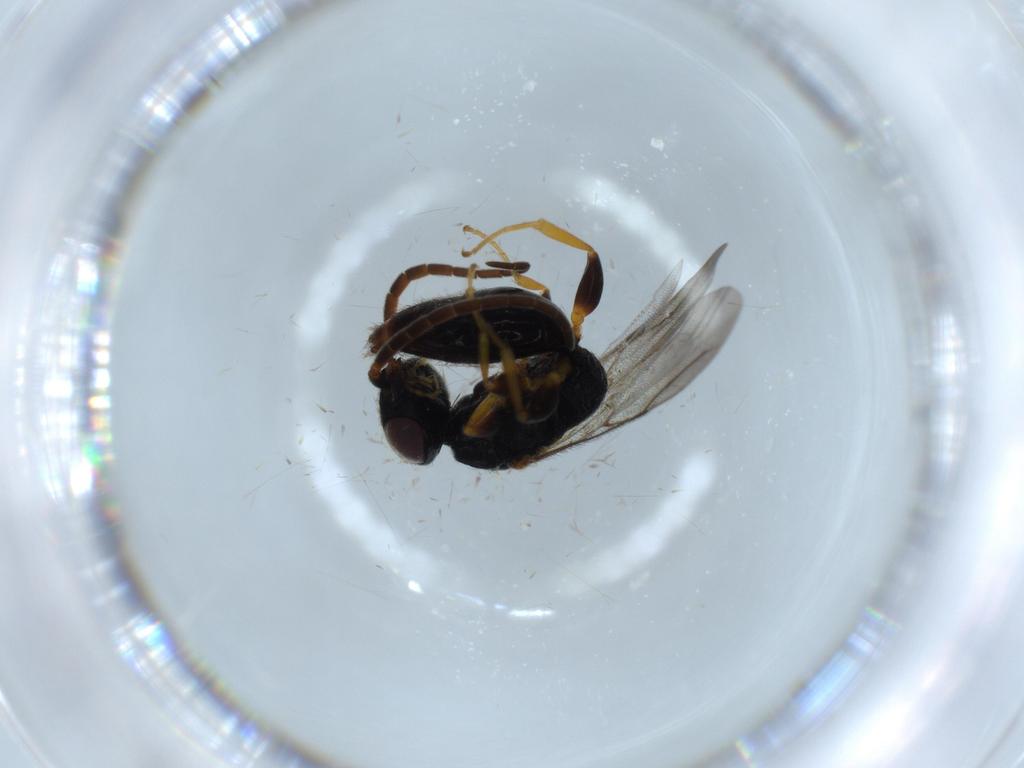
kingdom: Animalia
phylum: Arthropoda
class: Insecta
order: Hymenoptera
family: Bethylidae
